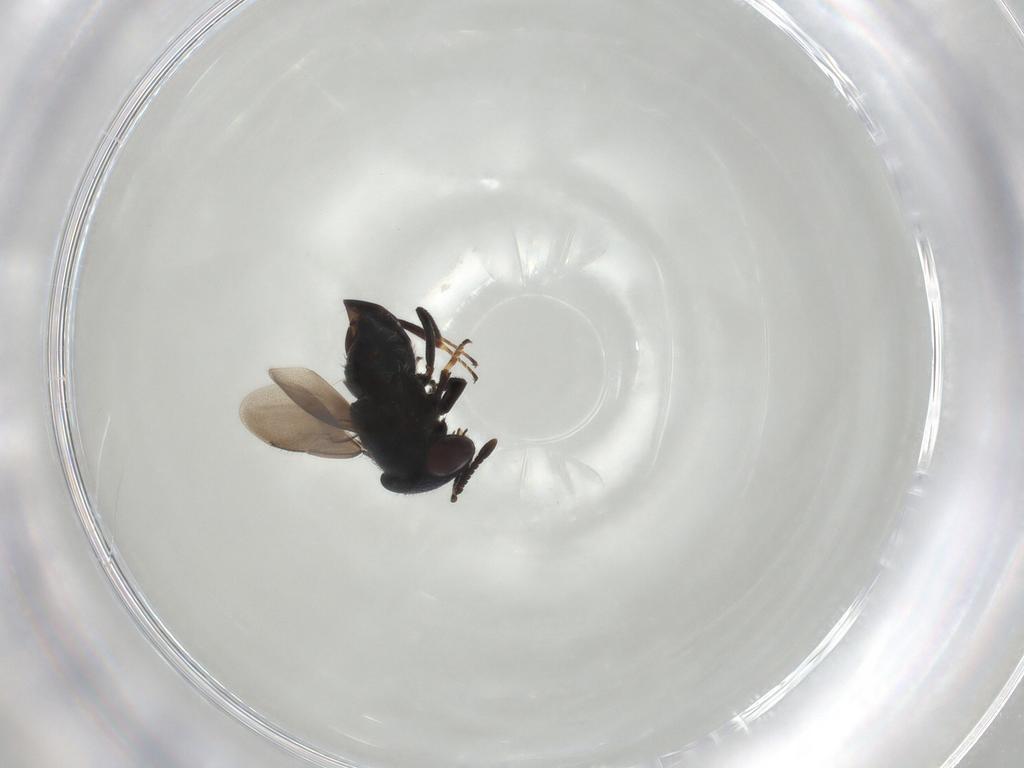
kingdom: Animalia
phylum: Arthropoda
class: Insecta
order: Hymenoptera
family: Encyrtidae
